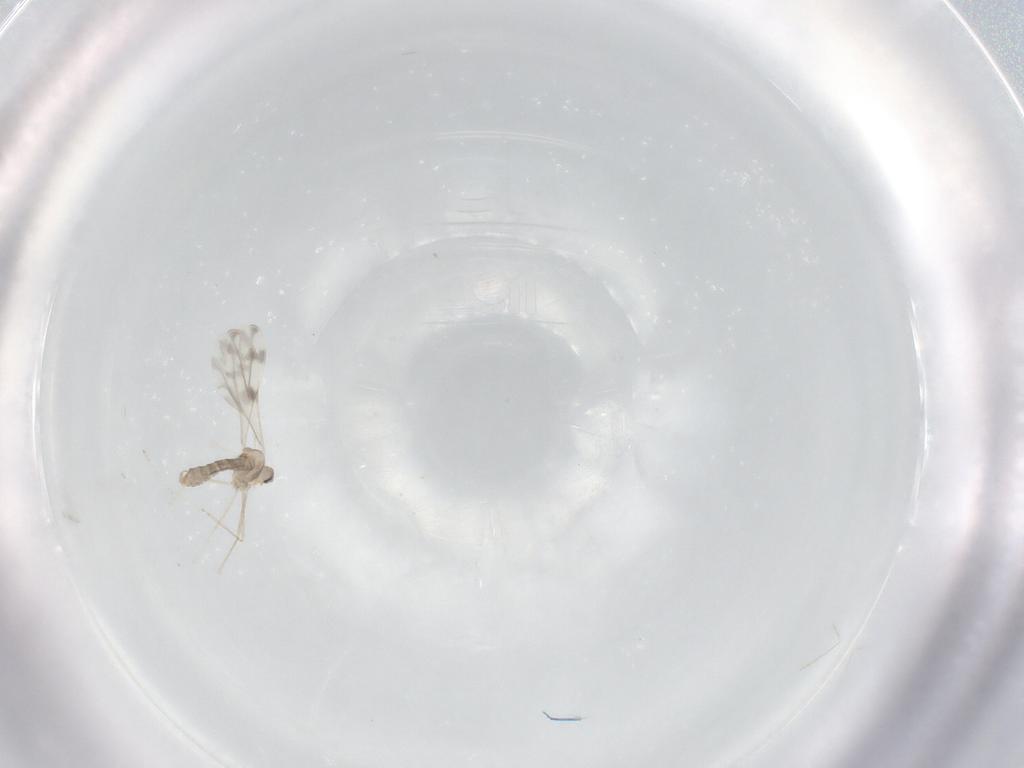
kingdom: Animalia
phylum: Arthropoda
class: Insecta
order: Diptera
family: Cecidomyiidae
